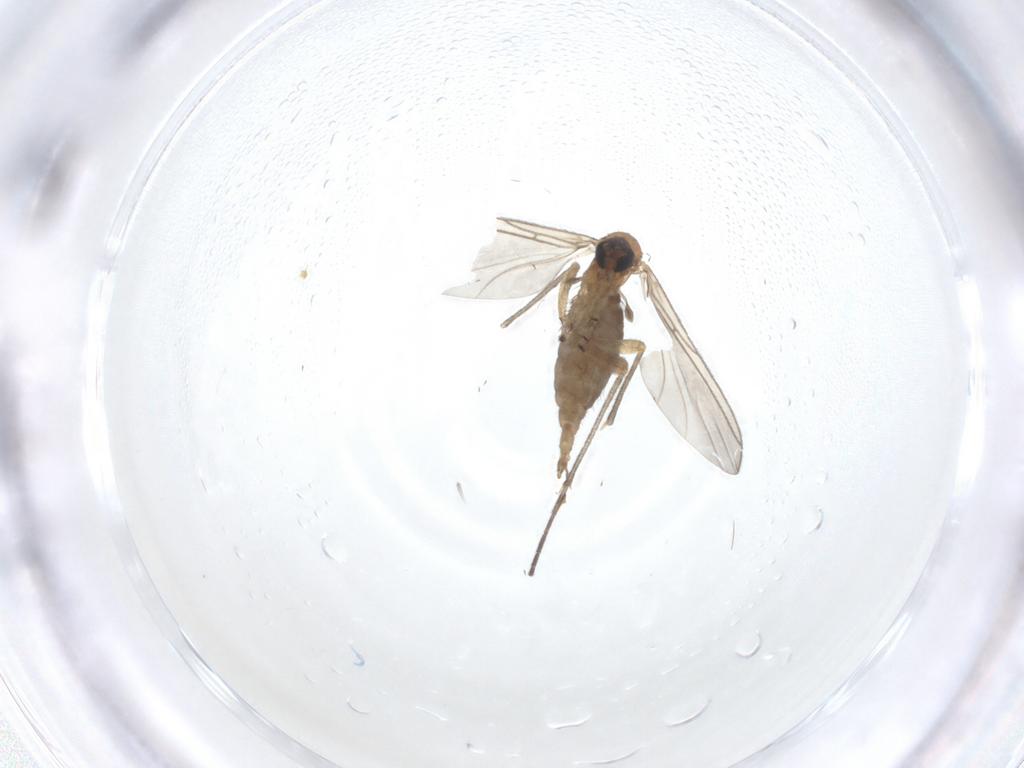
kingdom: Animalia
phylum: Arthropoda
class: Insecta
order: Diptera
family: Sciaridae
